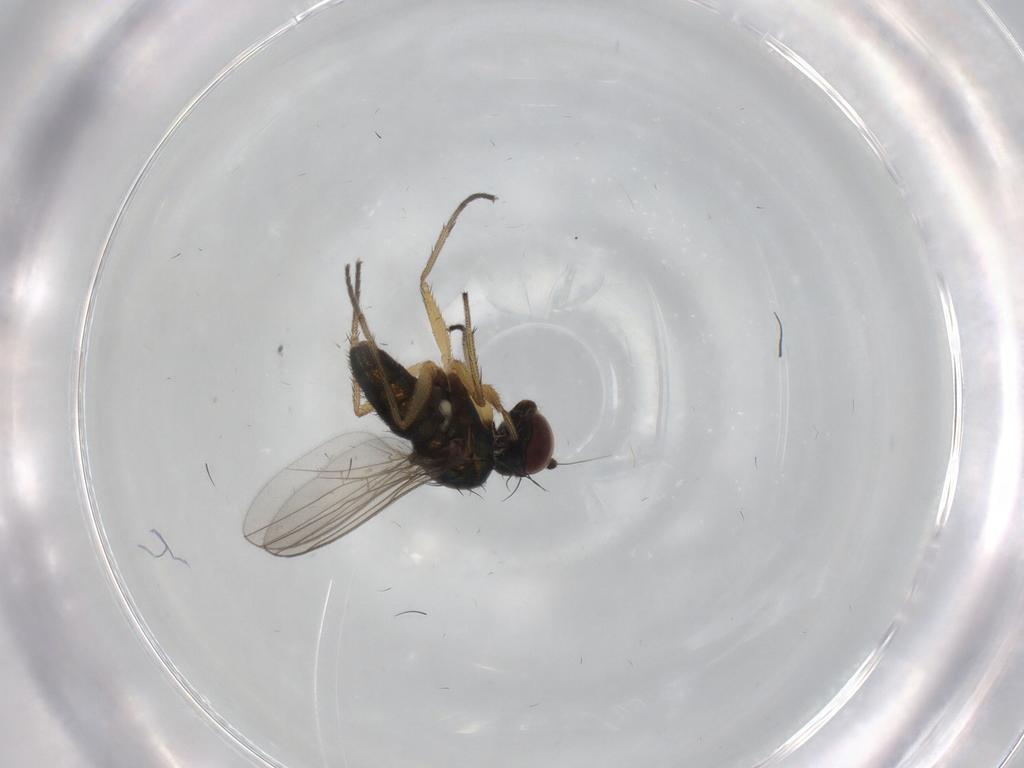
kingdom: Animalia
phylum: Arthropoda
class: Insecta
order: Diptera
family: Dolichopodidae
